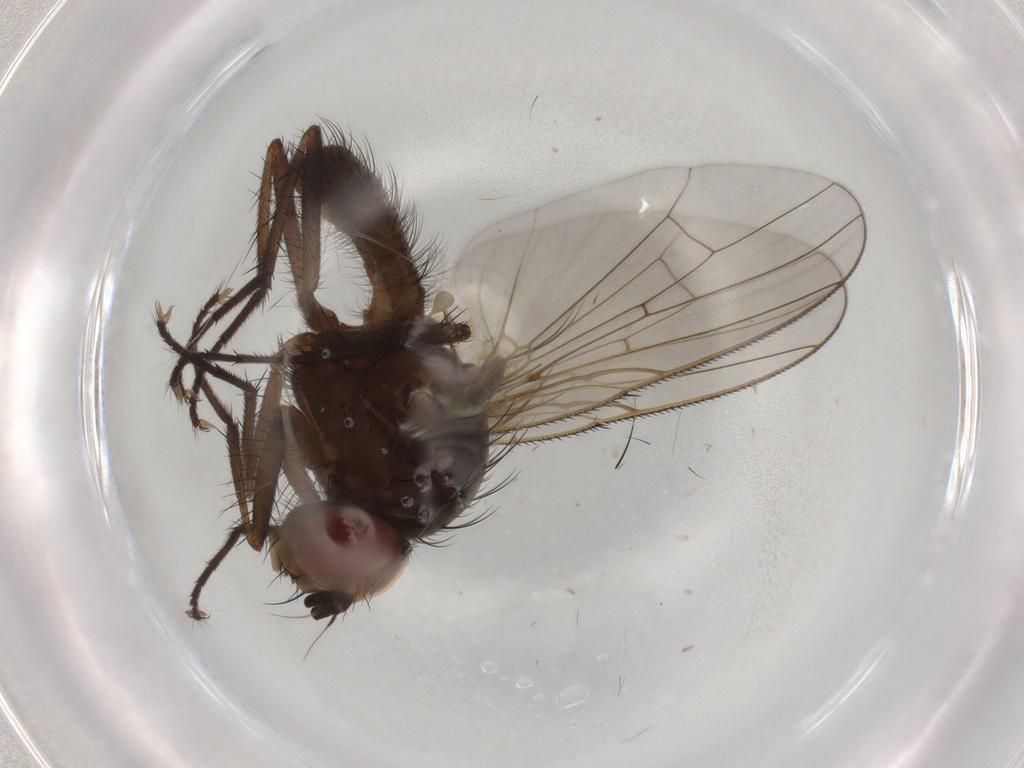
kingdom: Animalia
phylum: Arthropoda
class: Insecta
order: Diptera
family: Anthomyiidae
